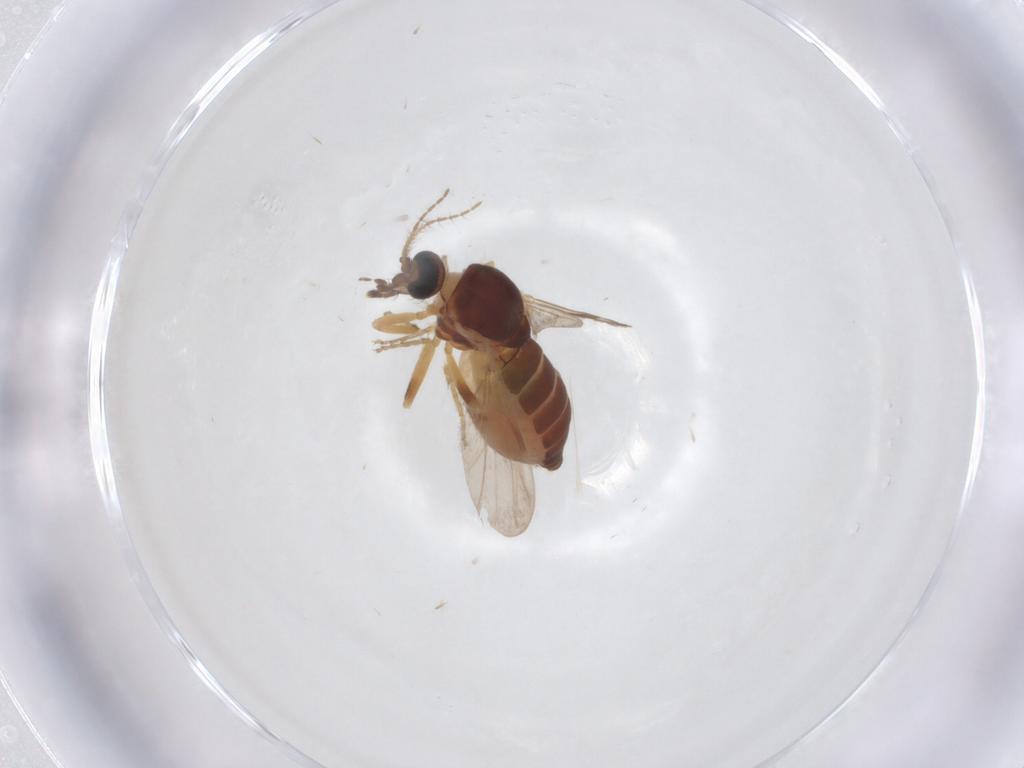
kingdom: Animalia
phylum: Arthropoda
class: Insecta
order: Diptera
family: Ceratopogonidae
